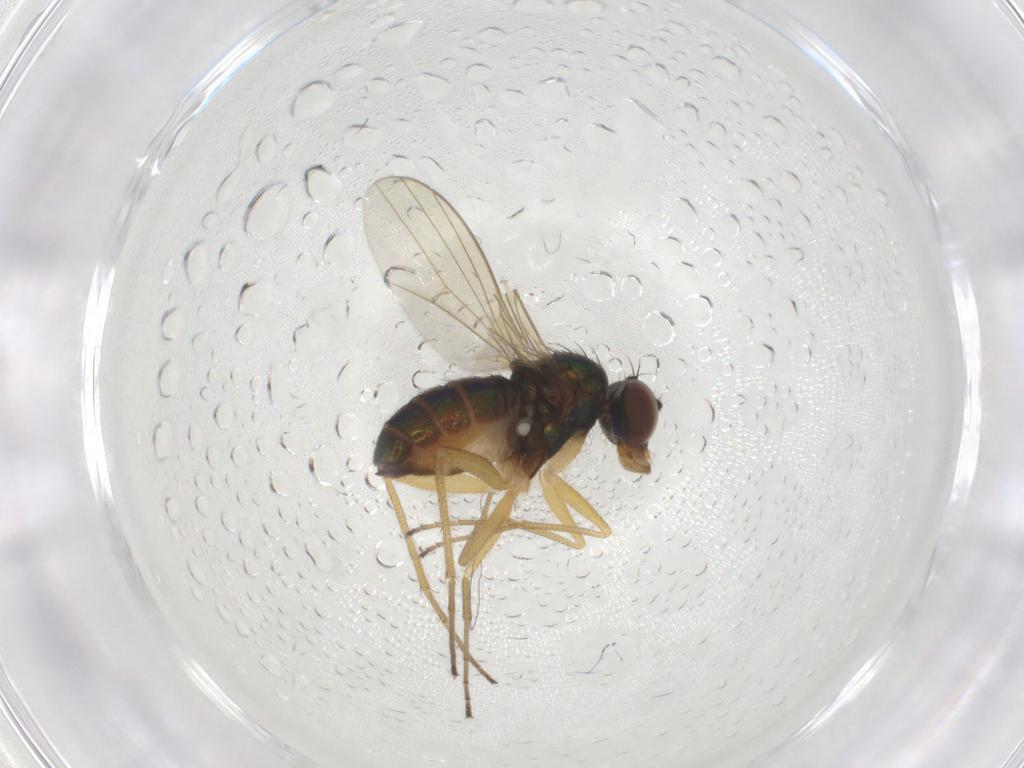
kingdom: Animalia
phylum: Arthropoda
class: Insecta
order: Diptera
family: Dolichopodidae
